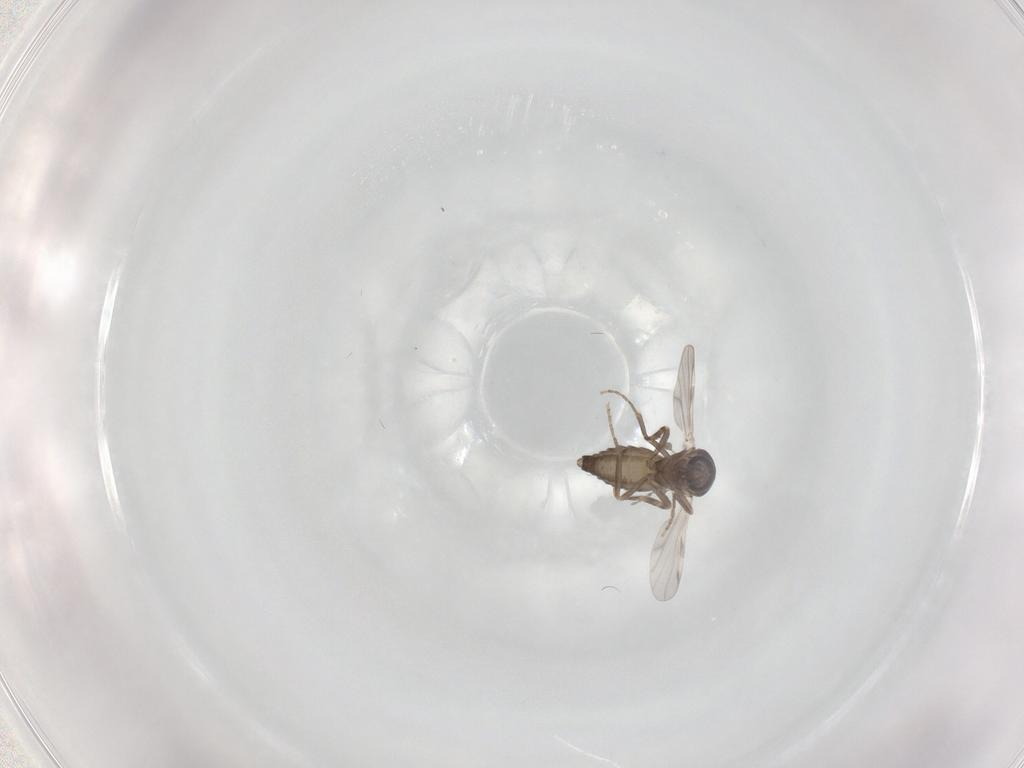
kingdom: Animalia
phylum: Arthropoda
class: Insecta
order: Diptera
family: Ceratopogonidae
